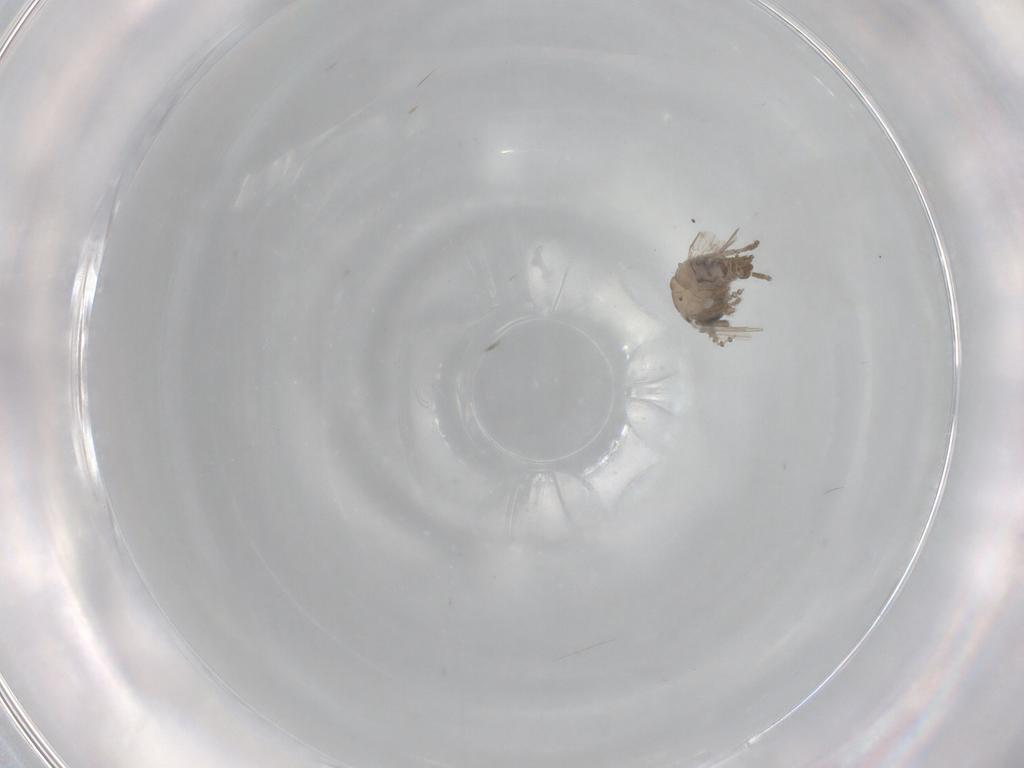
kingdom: Animalia
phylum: Arthropoda
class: Insecta
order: Diptera
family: Psychodidae
